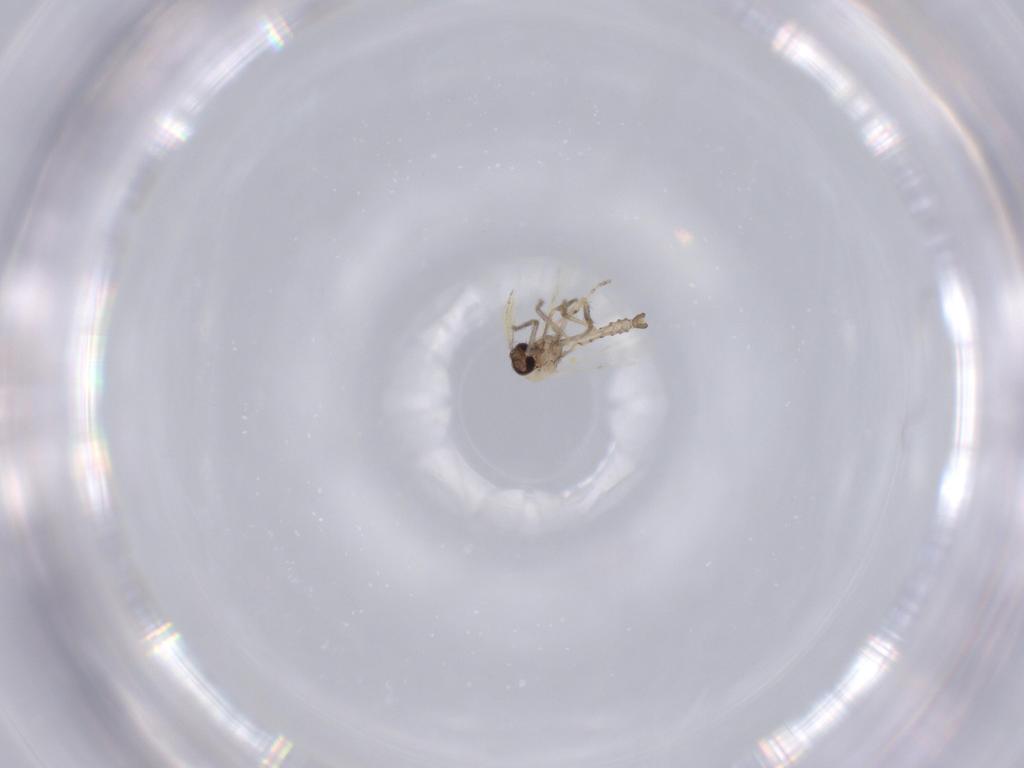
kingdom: Animalia
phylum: Arthropoda
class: Insecta
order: Diptera
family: Ceratopogonidae
